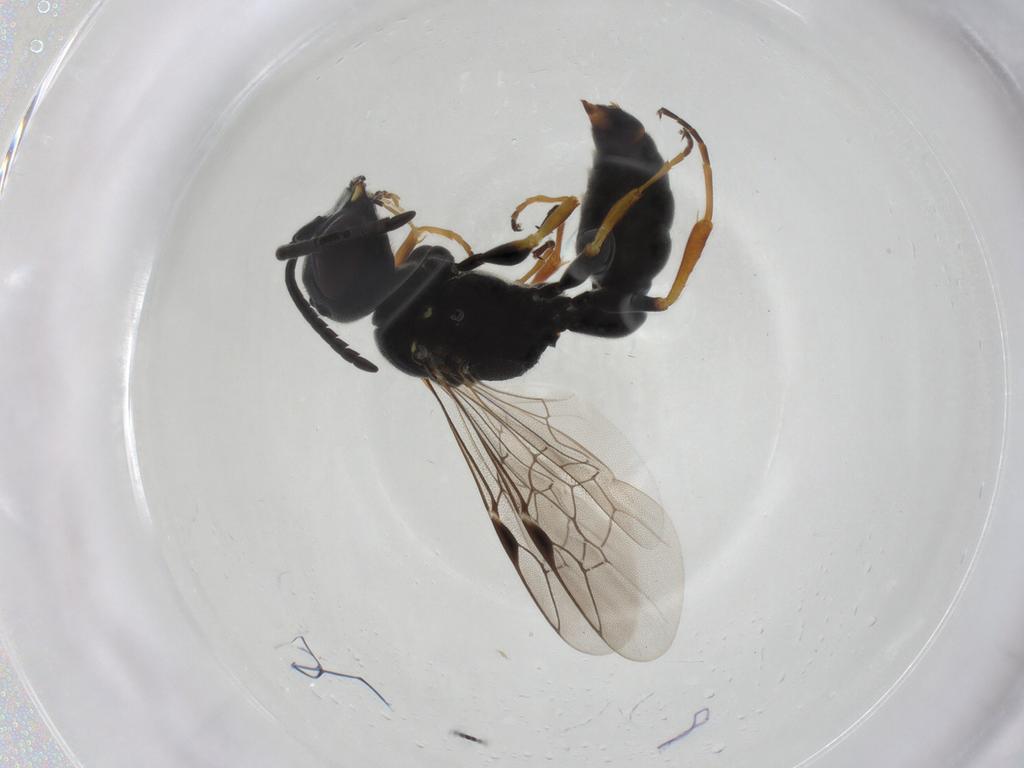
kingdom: Animalia
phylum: Arthropoda
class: Insecta
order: Hymenoptera
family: Pemphredonidae
